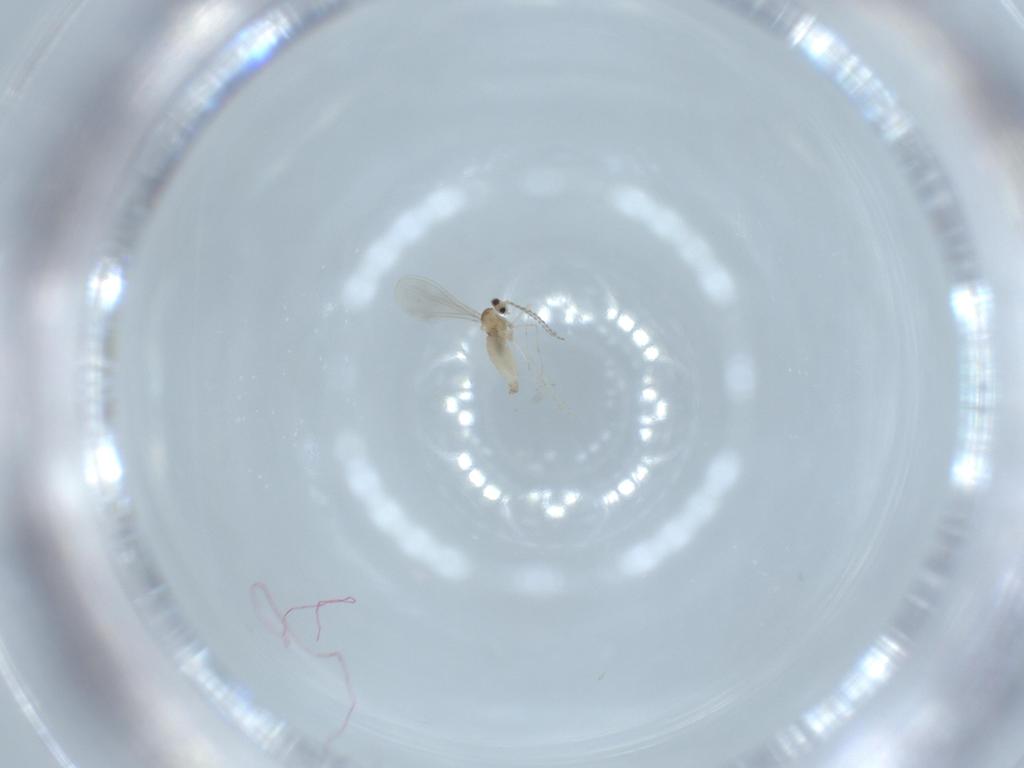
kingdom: Animalia
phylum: Arthropoda
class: Insecta
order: Diptera
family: Cecidomyiidae
